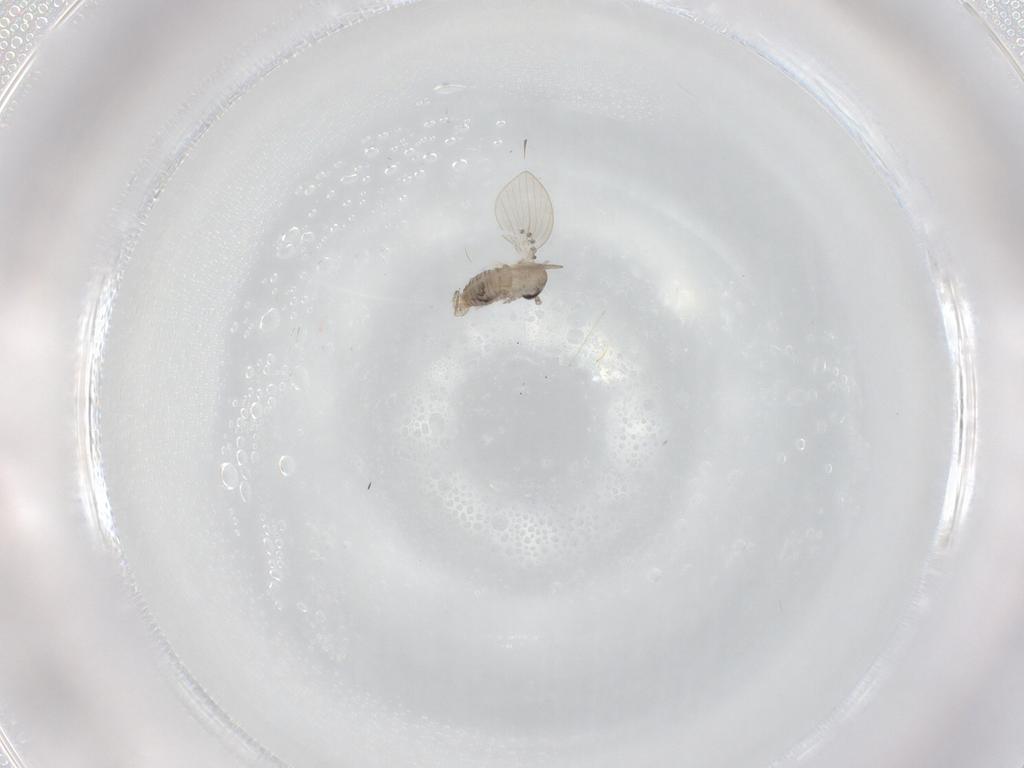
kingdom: Animalia
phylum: Arthropoda
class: Insecta
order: Diptera
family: Psychodidae
